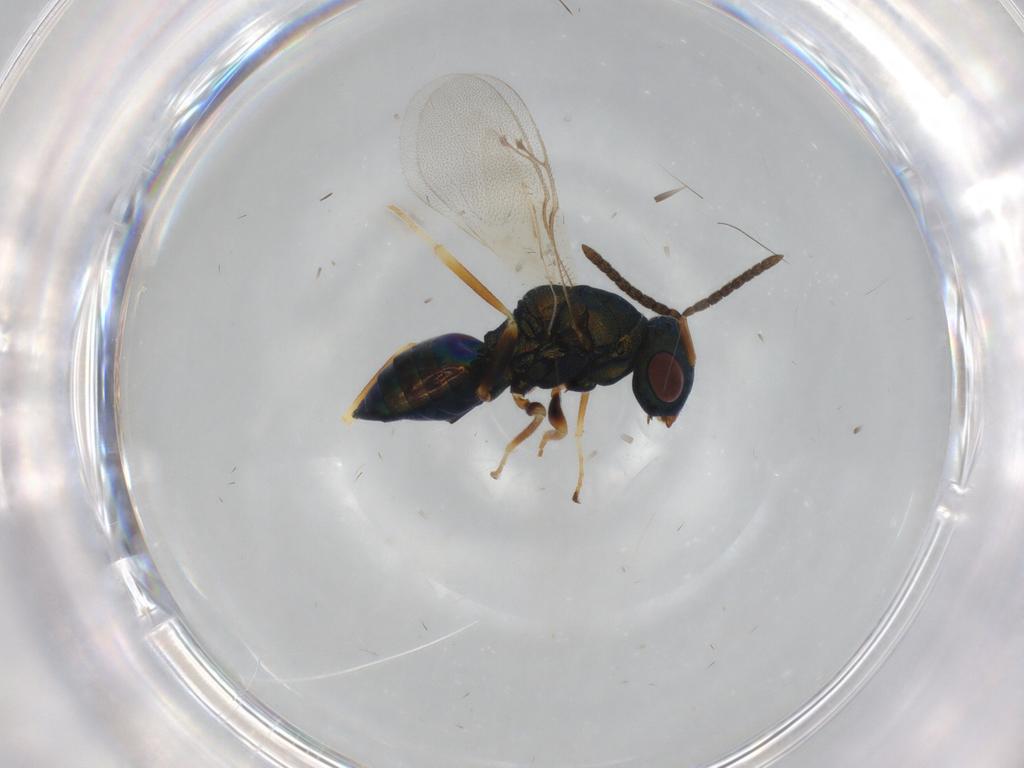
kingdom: Animalia
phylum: Arthropoda
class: Insecta
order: Hymenoptera
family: Pteromalidae
